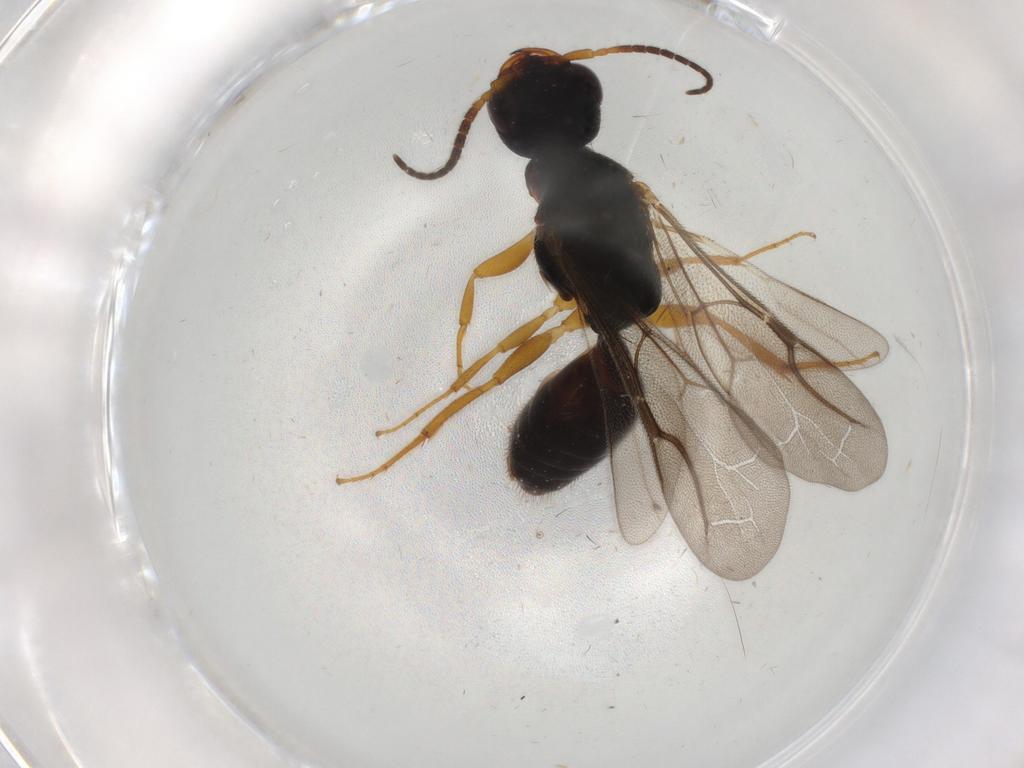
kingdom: Animalia
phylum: Arthropoda
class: Insecta
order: Hymenoptera
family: Bethylidae
